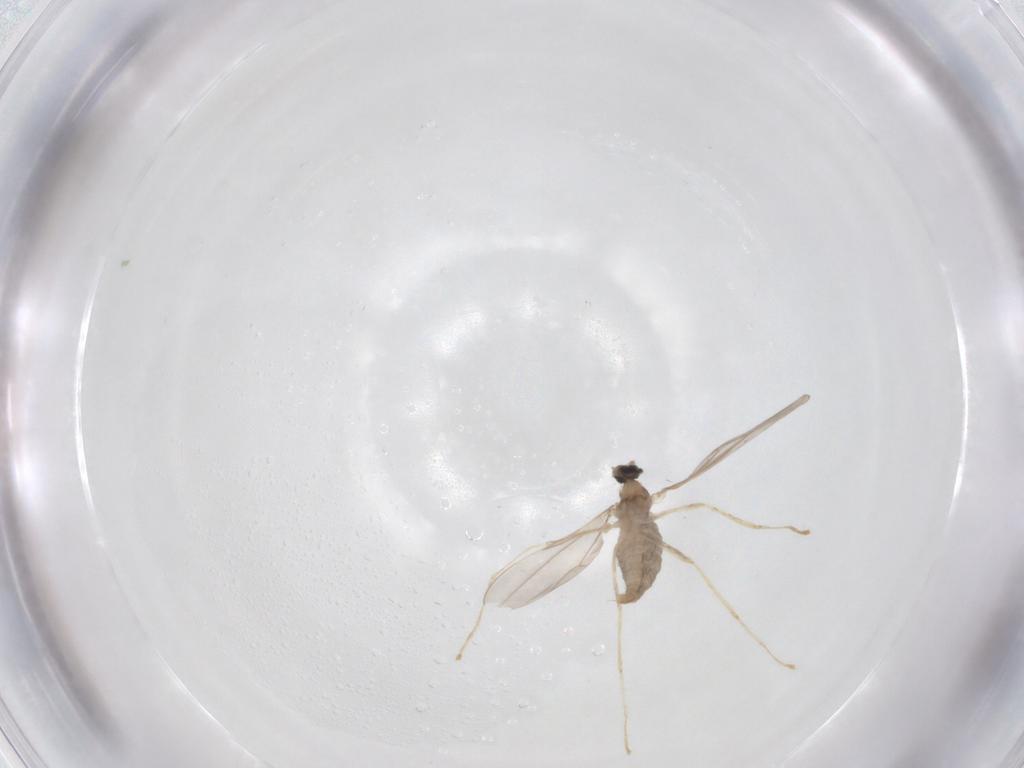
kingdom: Animalia
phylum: Arthropoda
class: Insecta
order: Diptera
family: Cecidomyiidae
